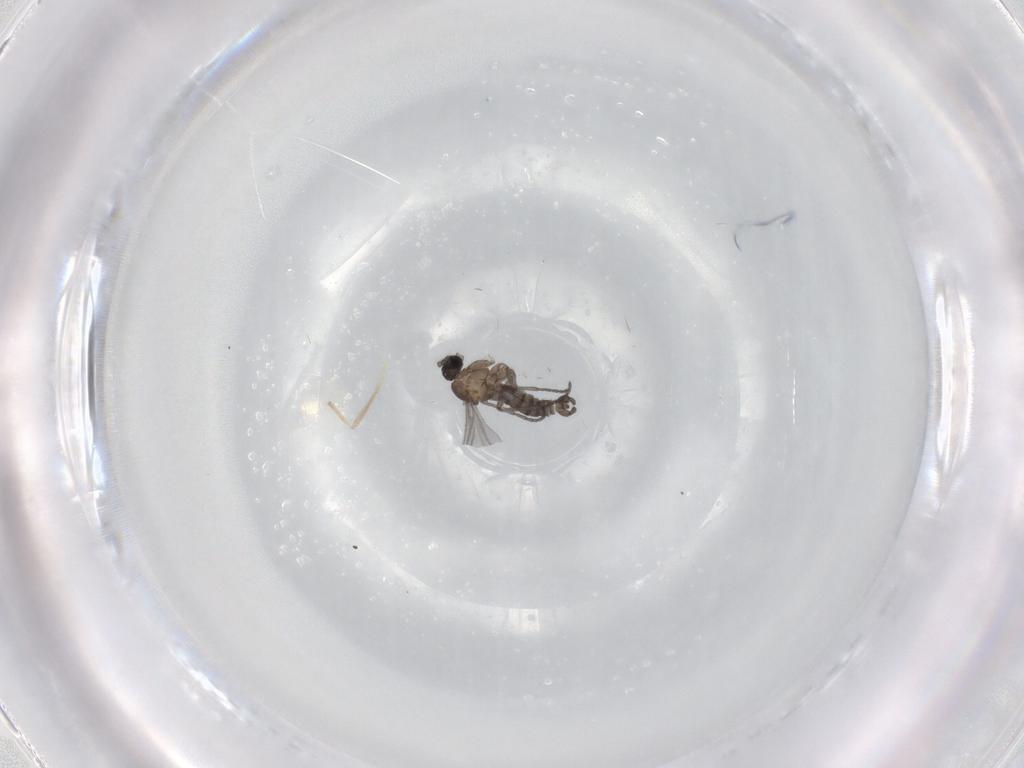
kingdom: Animalia
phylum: Arthropoda
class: Insecta
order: Diptera
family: Sciaridae
